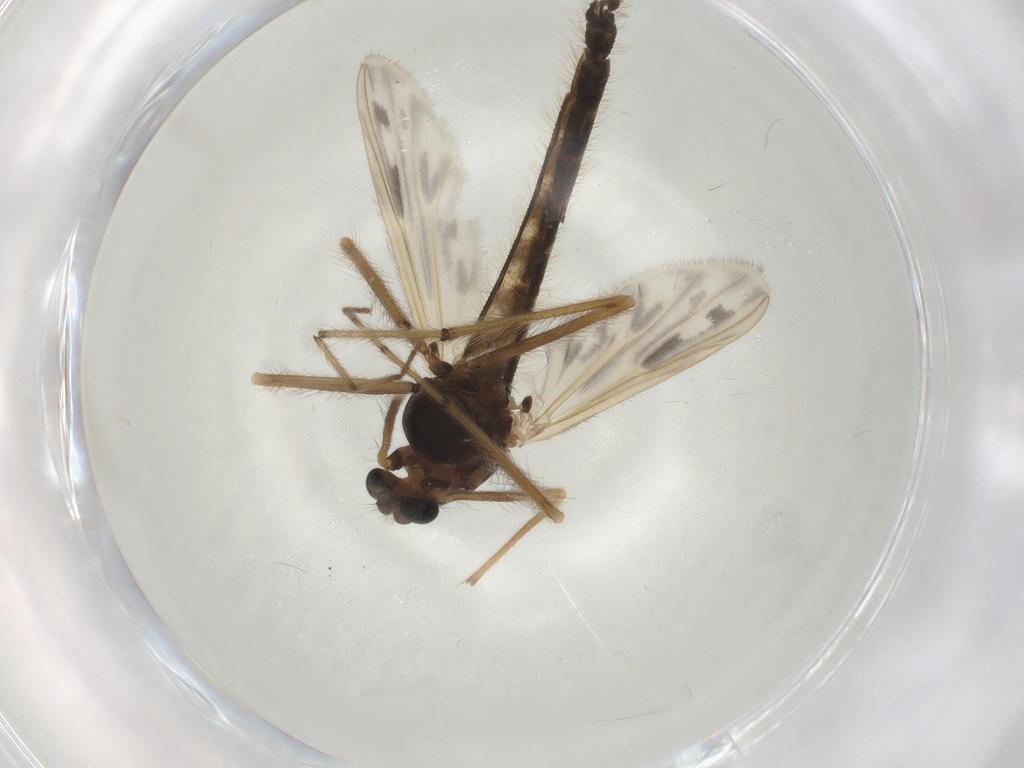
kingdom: Animalia
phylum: Arthropoda
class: Insecta
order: Diptera
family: Chironomidae
